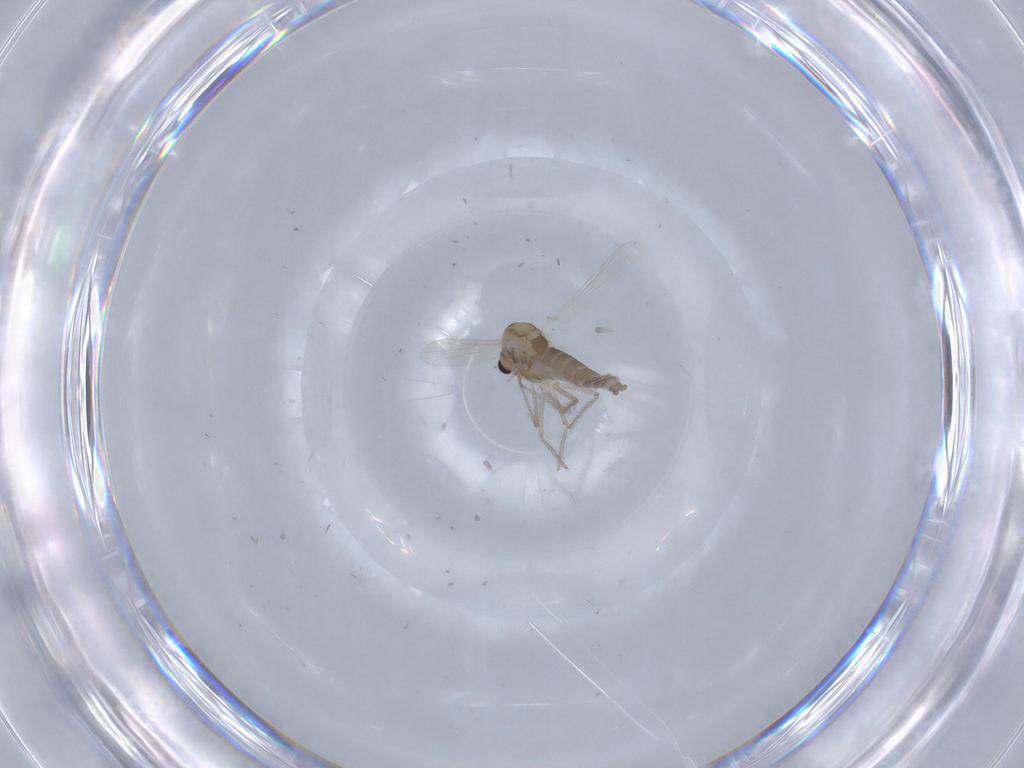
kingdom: Animalia
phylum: Arthropoda
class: Insecta
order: Diptera
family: Chironomidae
